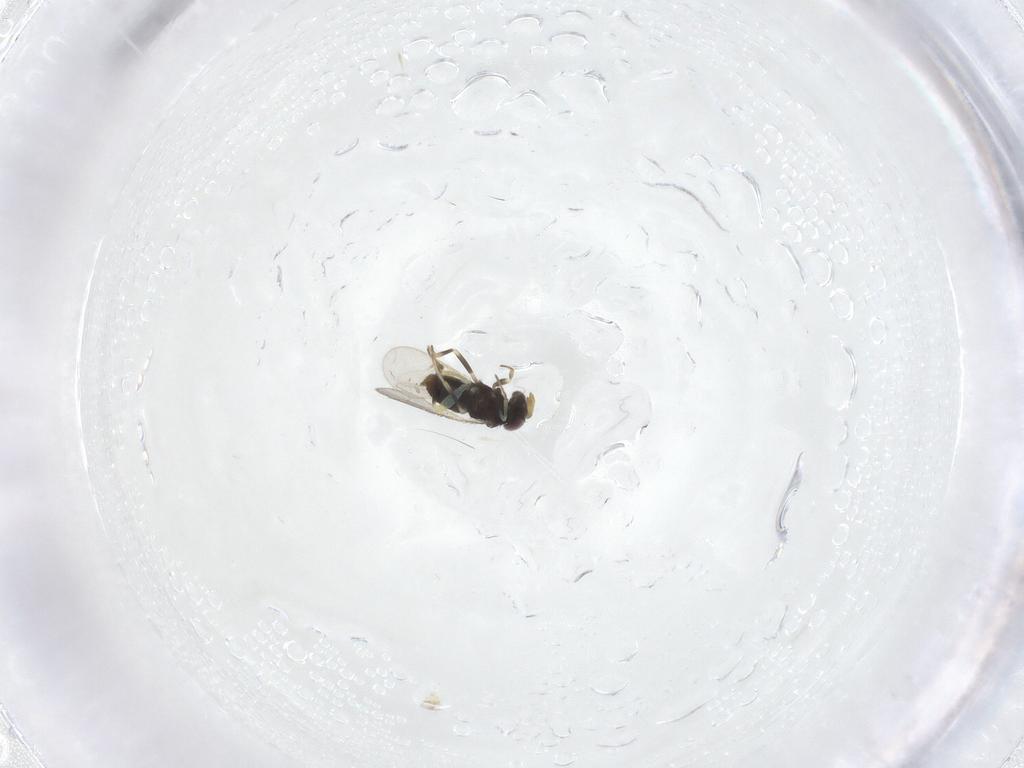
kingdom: Animalia
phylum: Arthropoda
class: Insecta
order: Hymenoptera
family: Aphelinidae
